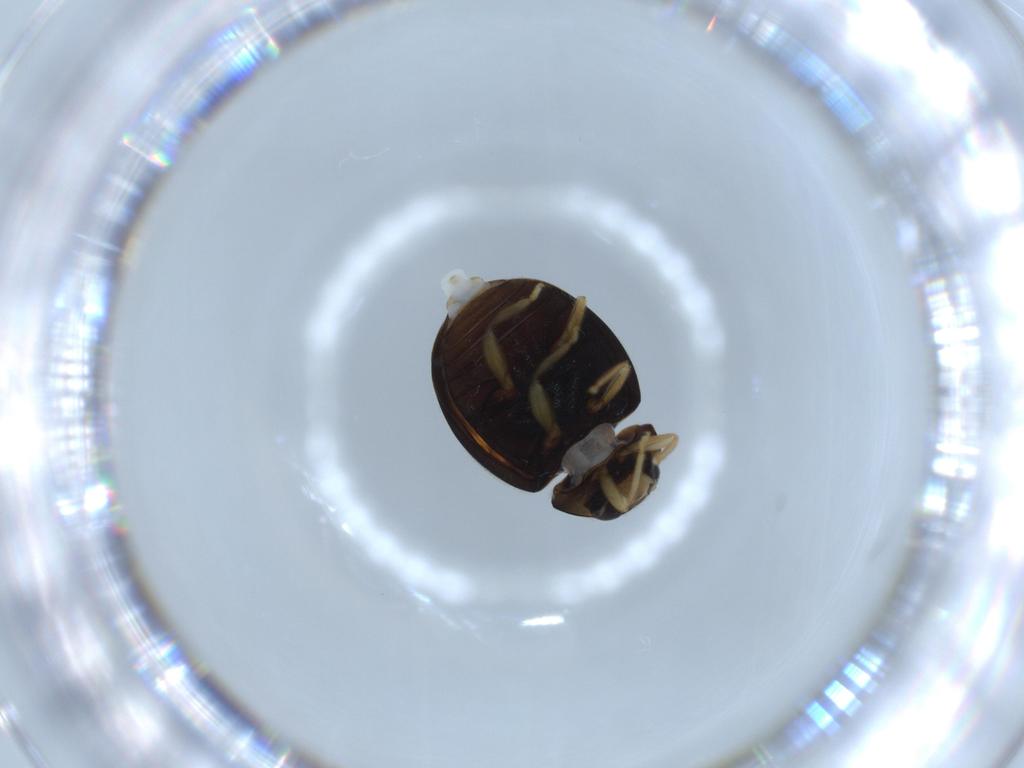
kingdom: Animalia
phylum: Arthropoda
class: Insecta
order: Coleoptera
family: Coccinellidae
